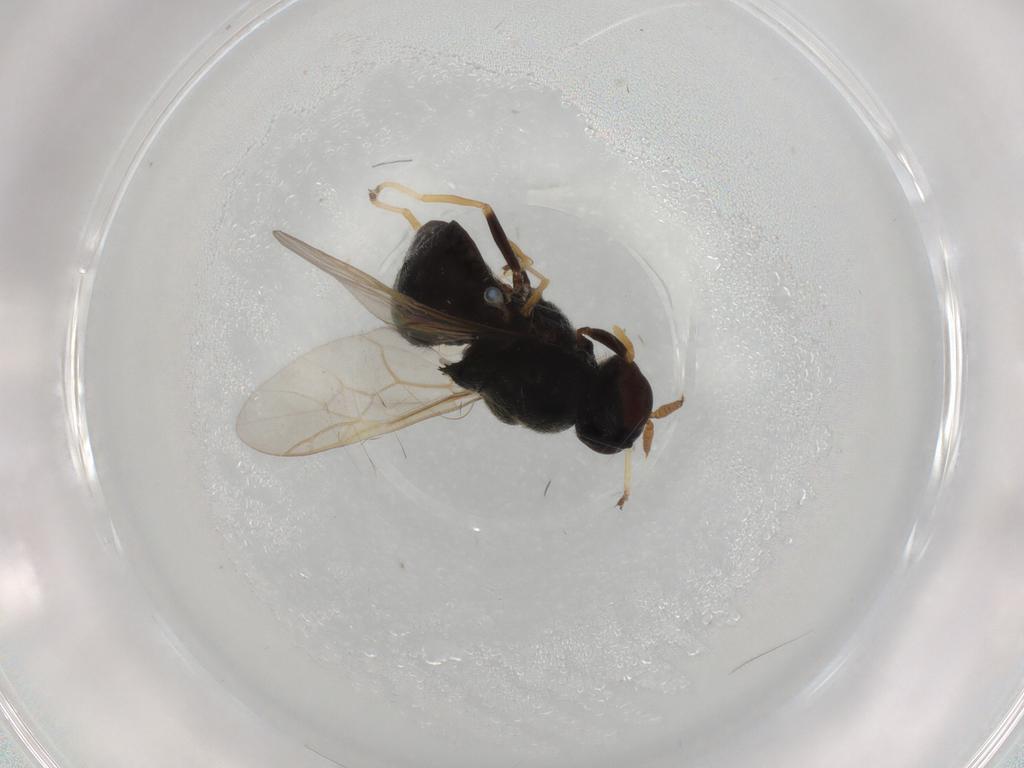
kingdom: Animalia
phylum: Arthropoda
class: Insecta
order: Diptera
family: Stratiomyidae
